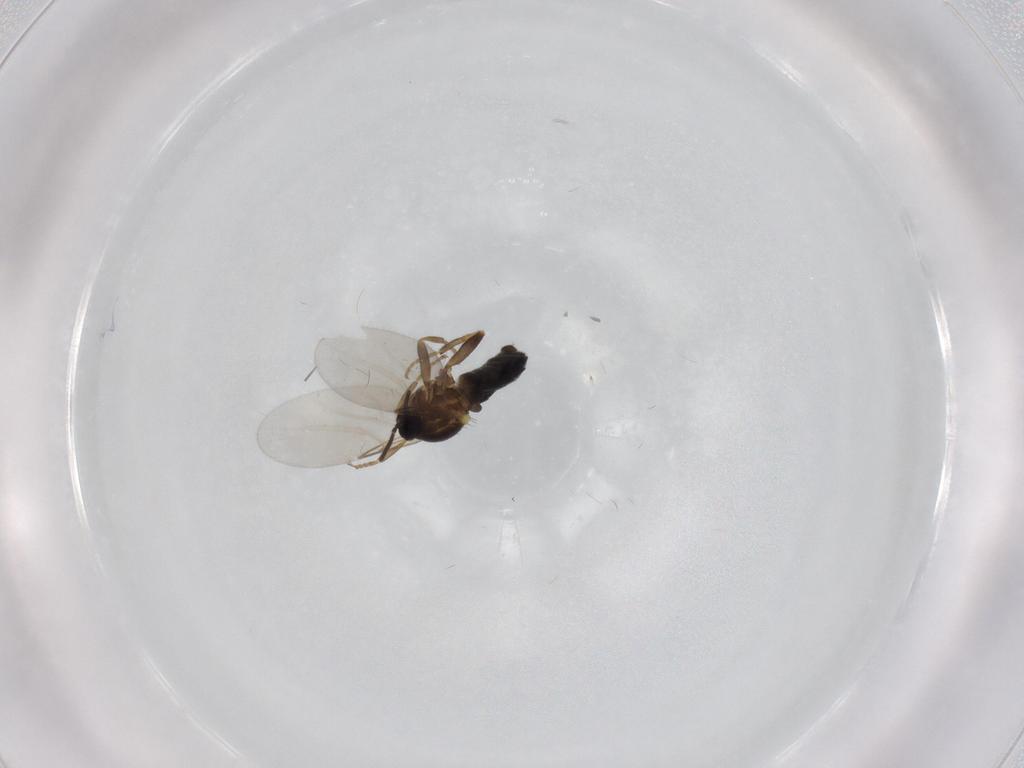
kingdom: Animalia
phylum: Arthropoda
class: Insecta
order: Diptera
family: Scatopsidae
